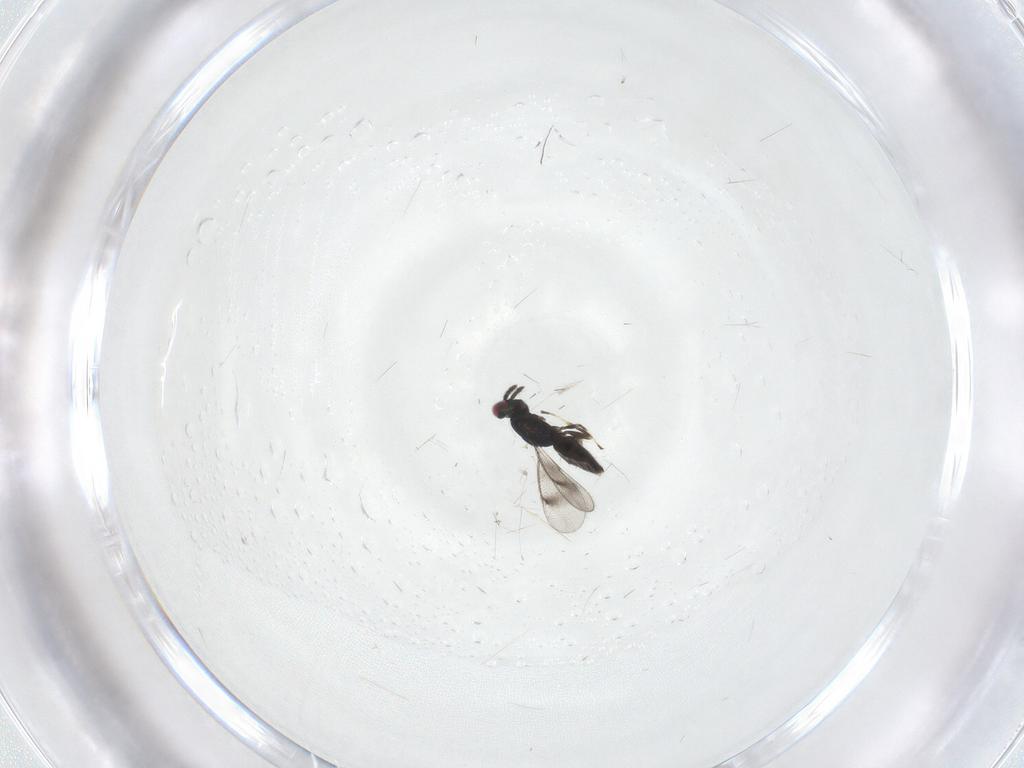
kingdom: Animalia
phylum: Arthropoda
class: Insecta
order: Hymenoptera
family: Eulophidae
